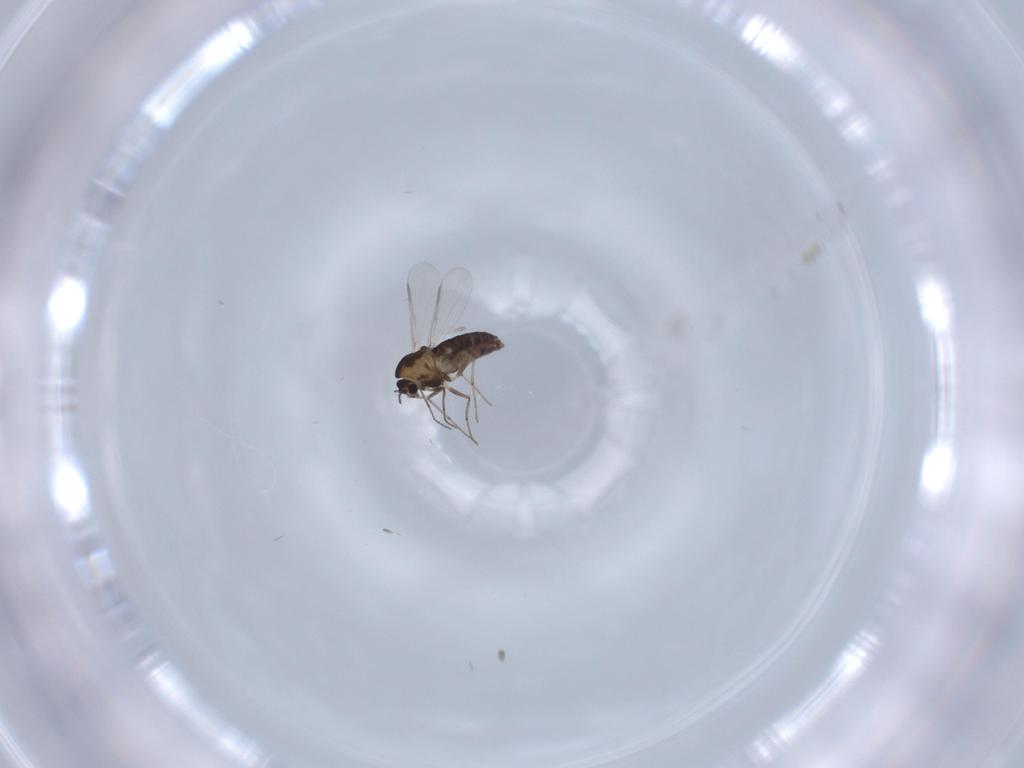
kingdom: Animalia
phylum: Arthropoda
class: Insecta
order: Diptera
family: Chironomidae
